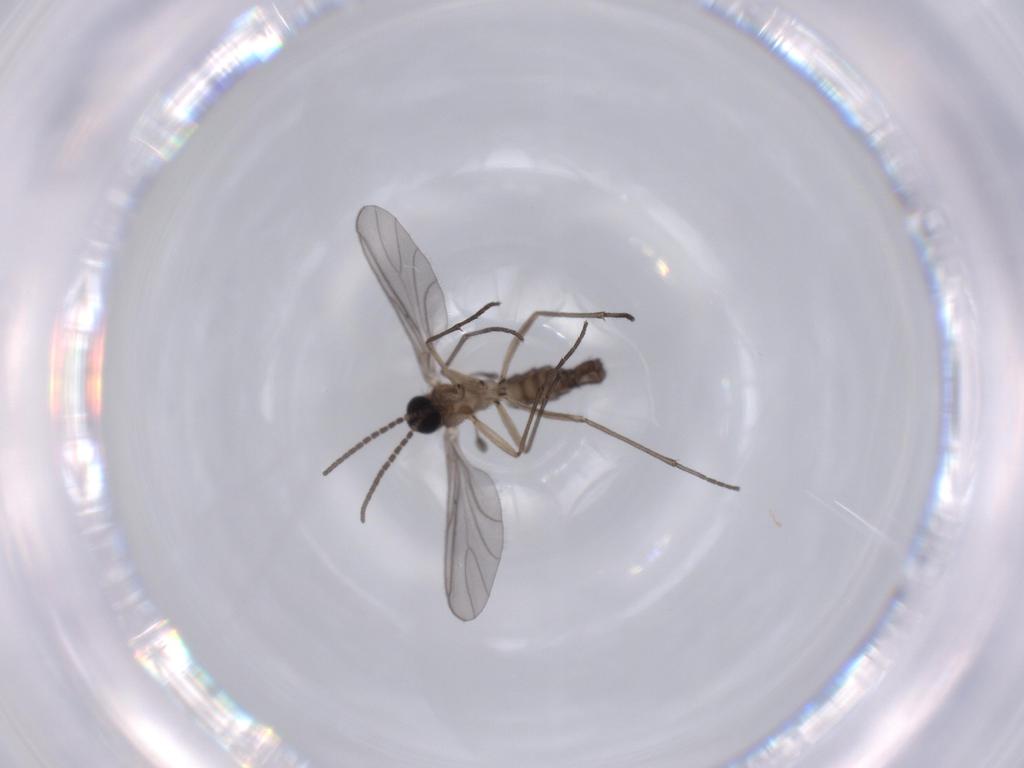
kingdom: Animalia
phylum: Arthropoda
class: Insecta
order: Diptera
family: Sciaridae
